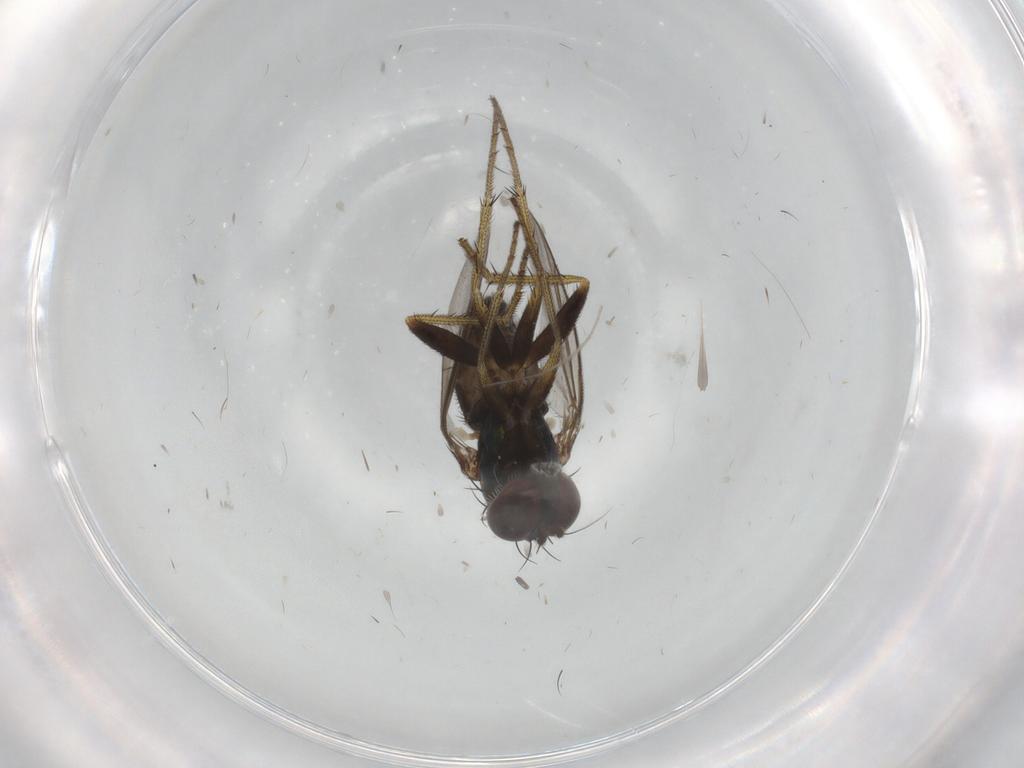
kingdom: Animalia
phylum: Arthropoda
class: Insecta
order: Diptera
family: Dolichopodidae
